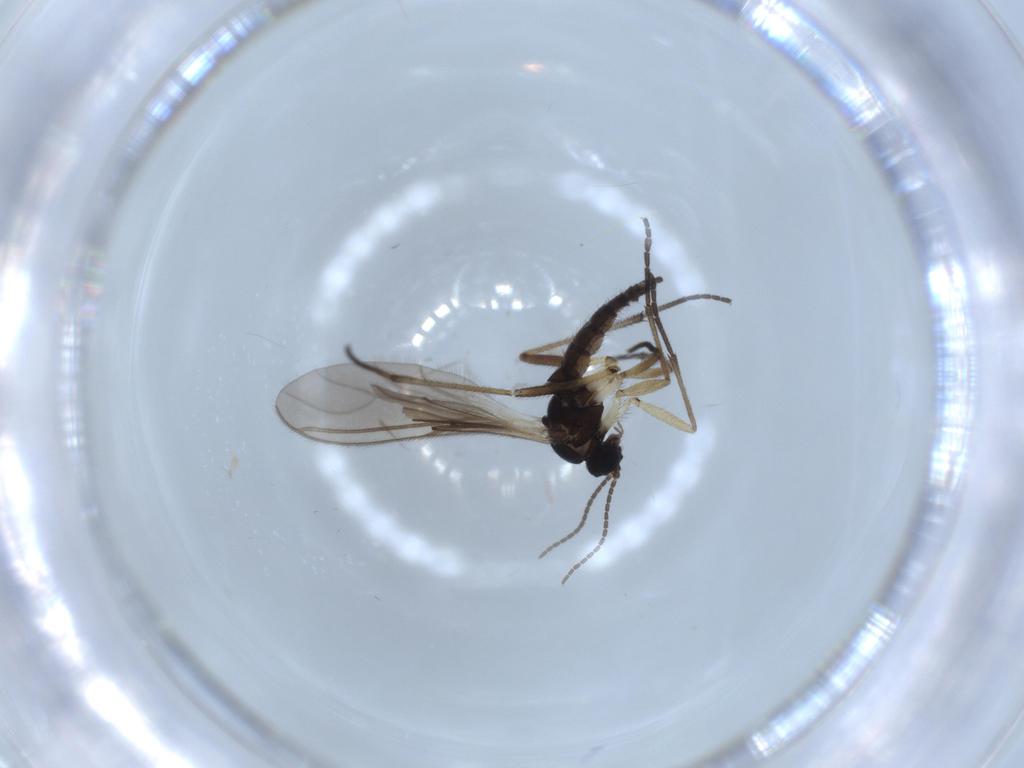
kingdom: Animalia
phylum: Arthropoda
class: Insecta
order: Diptera
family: Sciaridae
